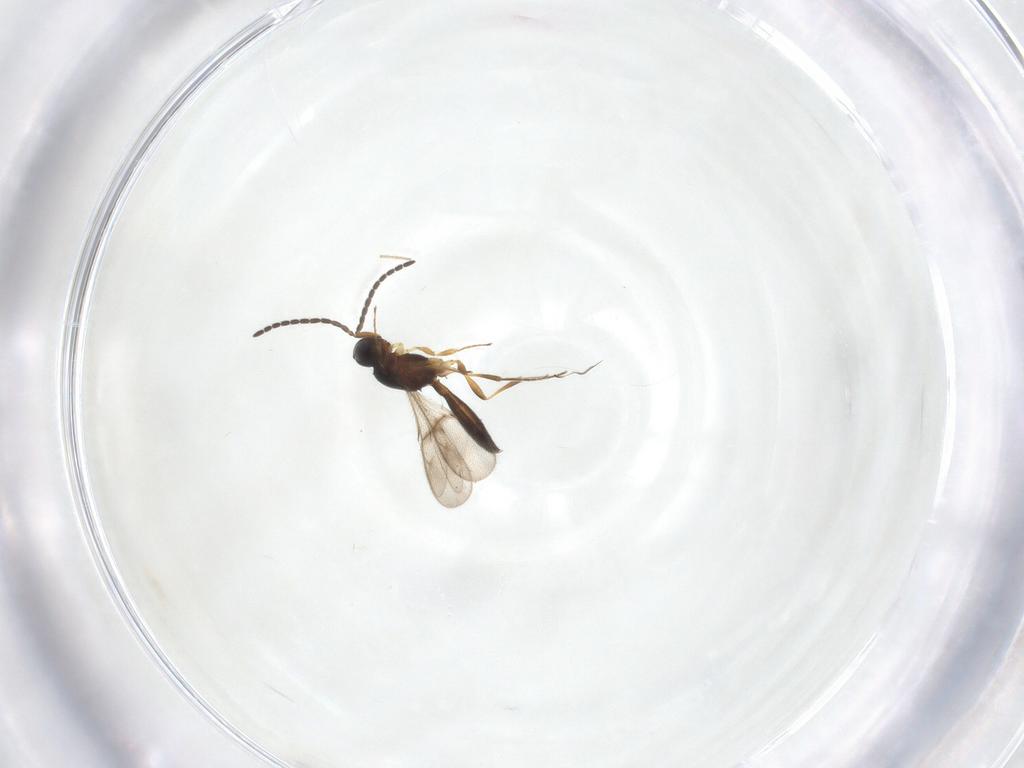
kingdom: Animalia
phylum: Arthropoda
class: Insecta
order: Hymenoptera
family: Scelionidae
